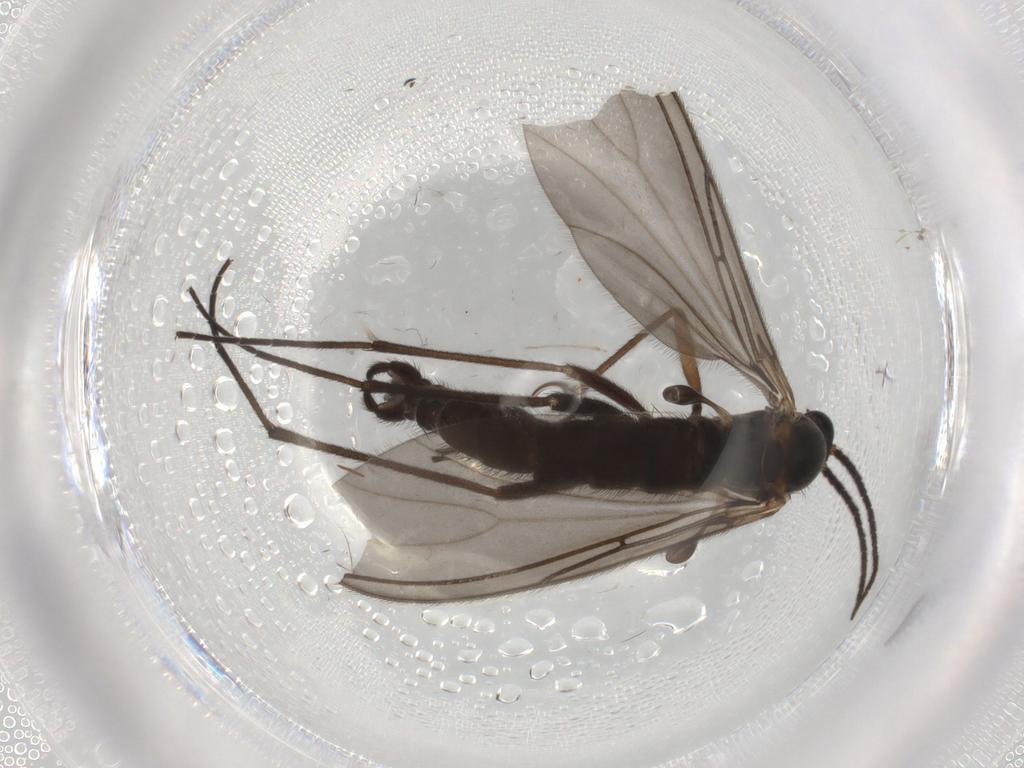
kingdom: Animalia
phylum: Arthropoda
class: Insecta
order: Diptera
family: Sciaridae
